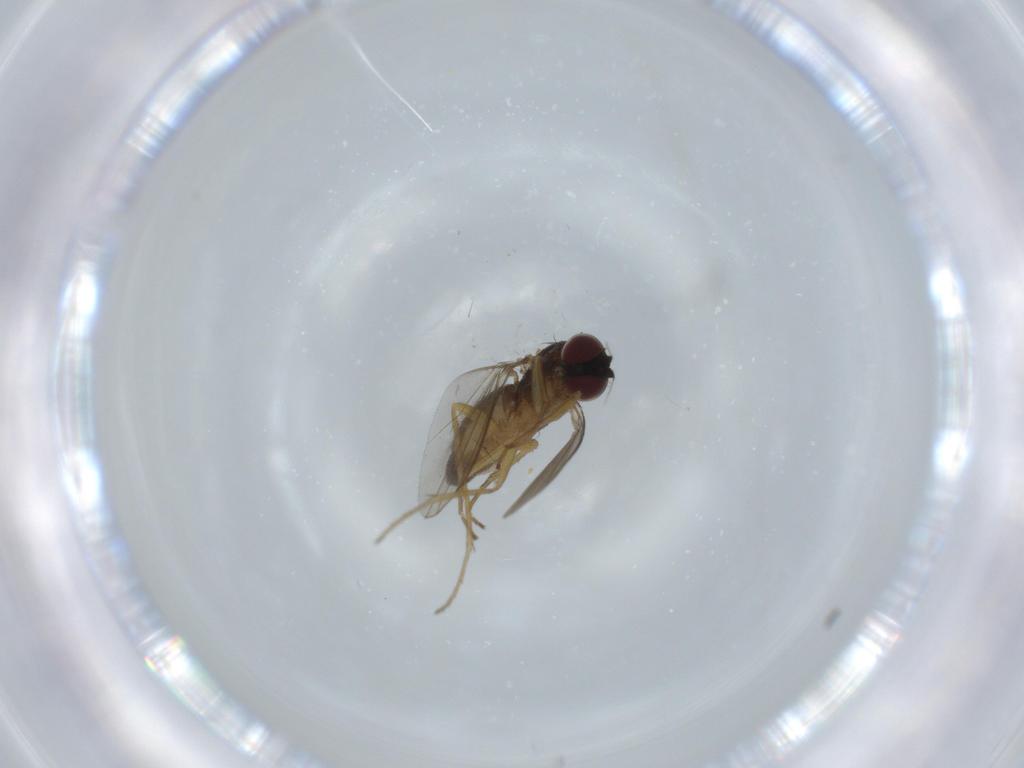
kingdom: Animalia
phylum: Arthropoda
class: Insecta
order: Diptera
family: Dolichopodidae
